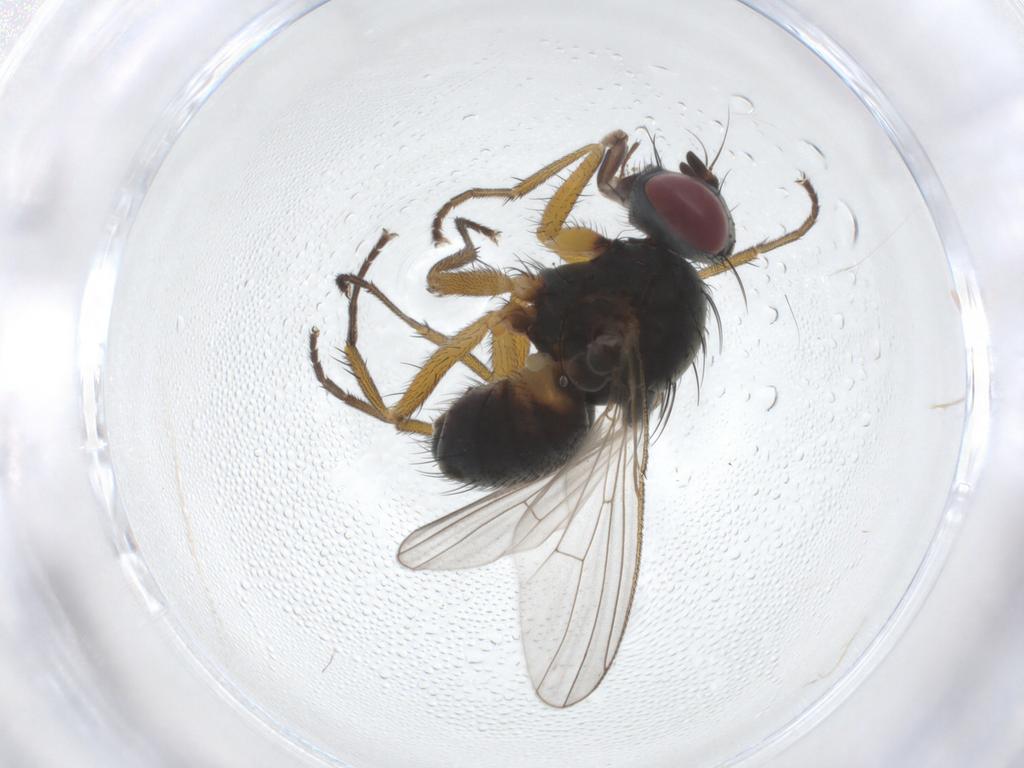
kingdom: Animalia
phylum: Arthropoda
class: Insecta
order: Diptera
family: Muscidae
